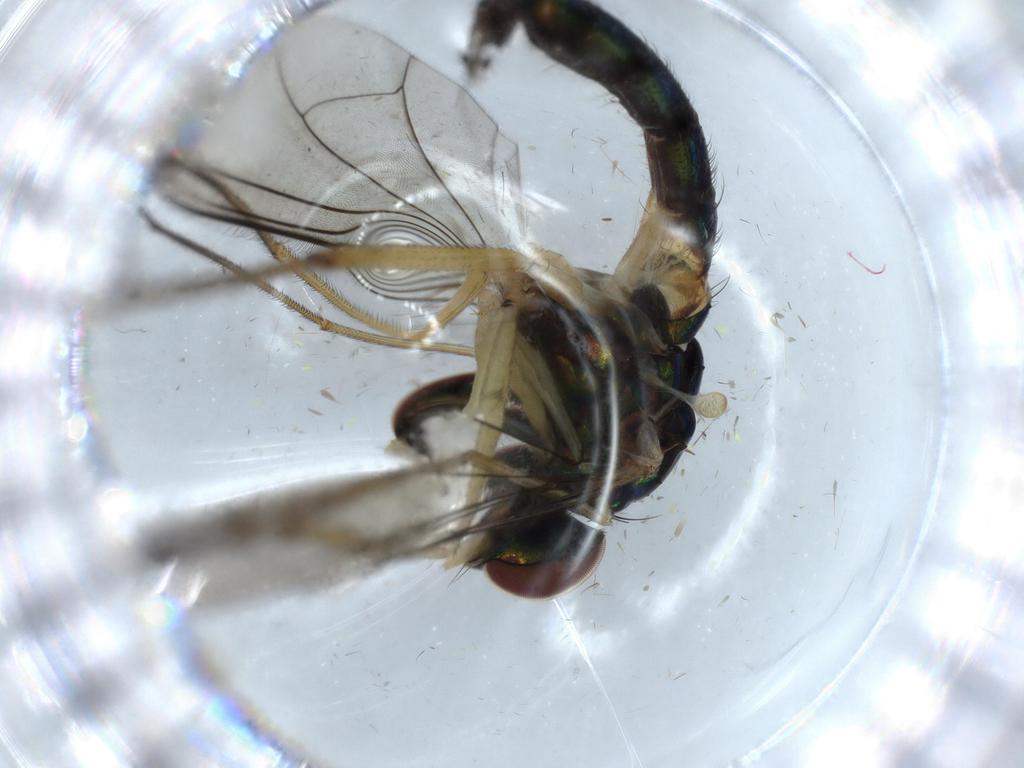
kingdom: Animalia
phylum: Arthropoda
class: Insecta
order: Diptera
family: Dolichopodidae
